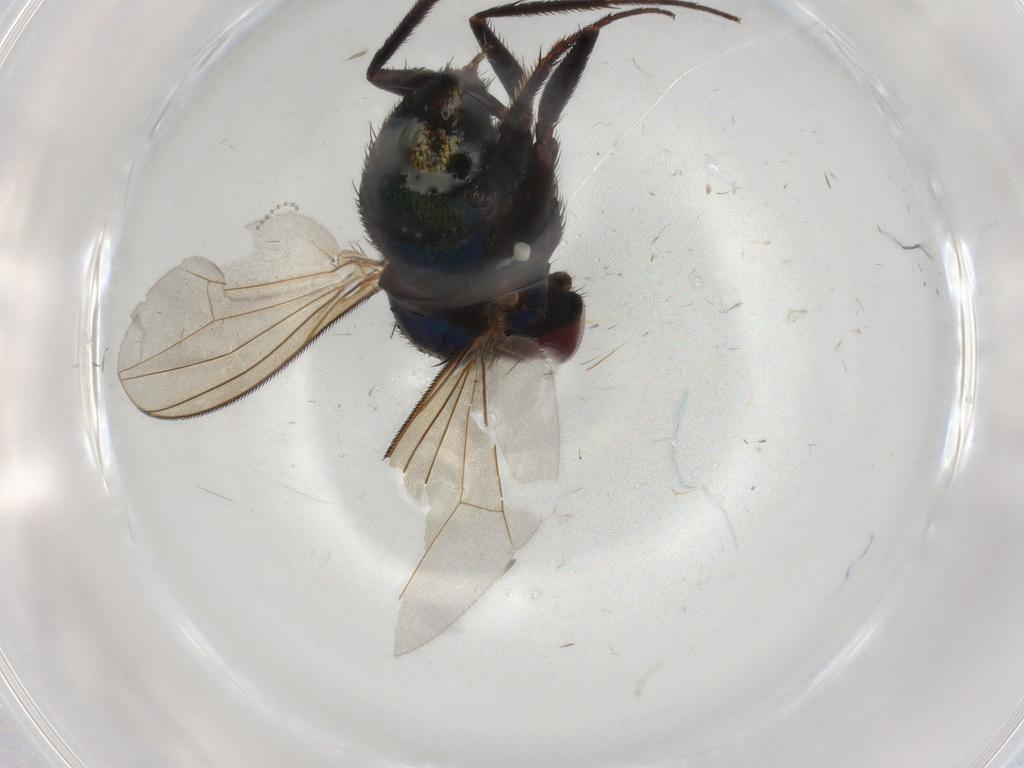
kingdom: Animalia
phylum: Arthropoda
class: Insecta
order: Diptera
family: Dolichopodidae
